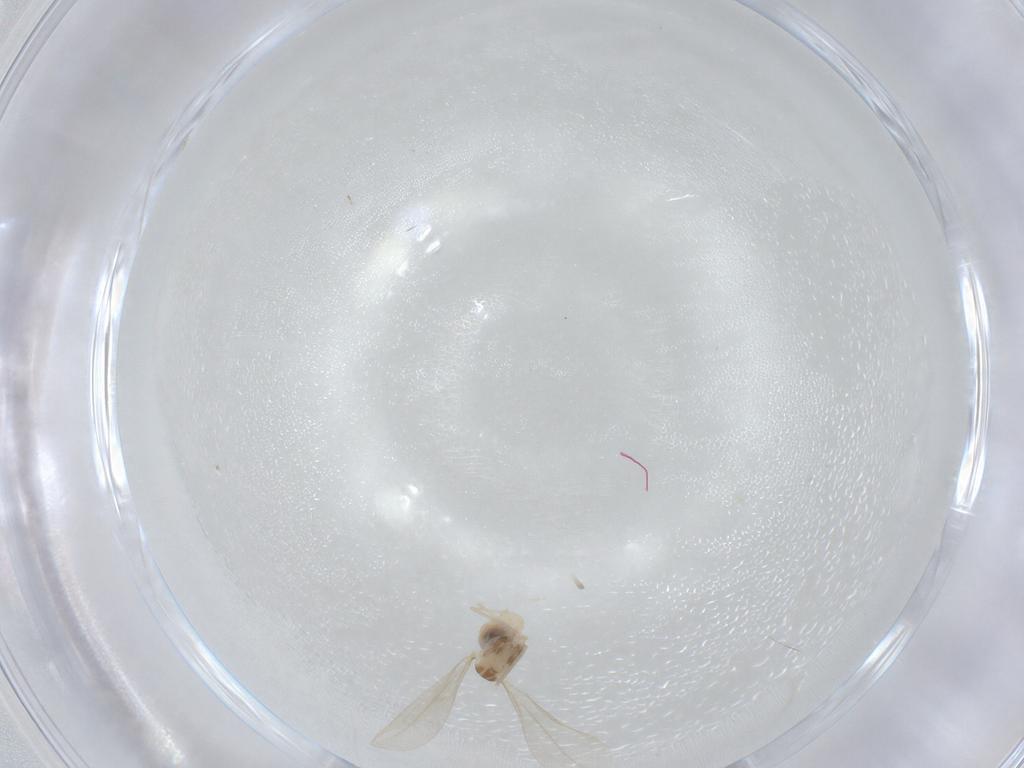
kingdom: Animalia
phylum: Arthropoda
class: Insecta
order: Diptera
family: Cecidomyiidae
